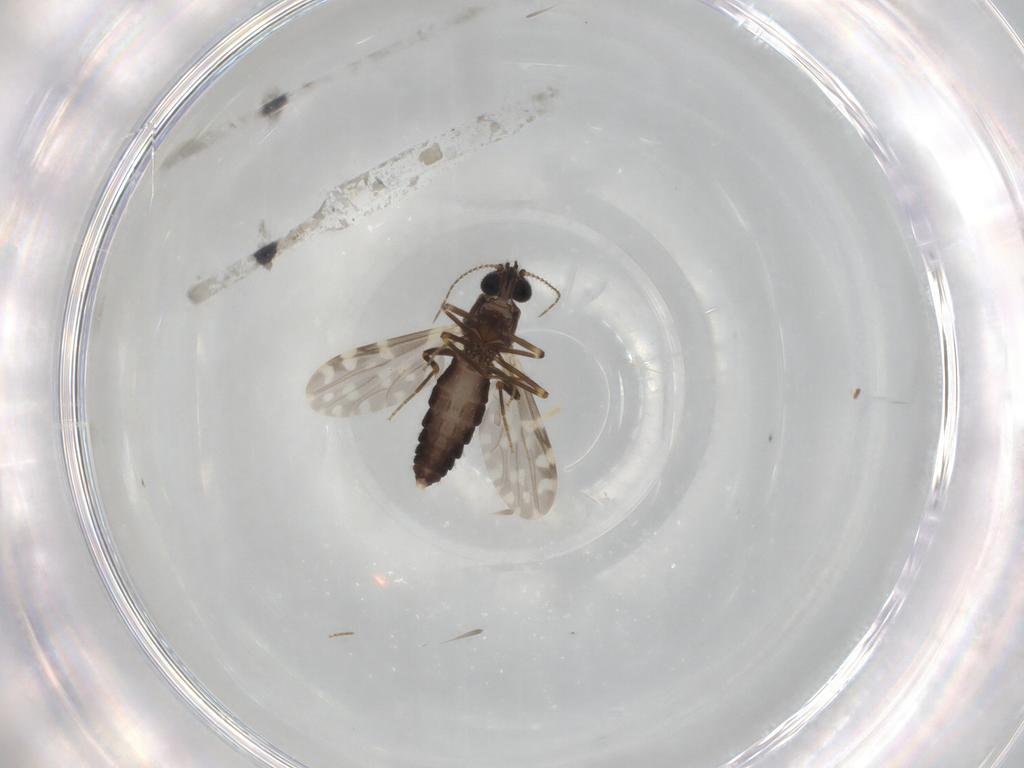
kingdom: Animalia
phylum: Arthropoda
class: Insecta
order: Diptera
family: Ceratopogonidae
